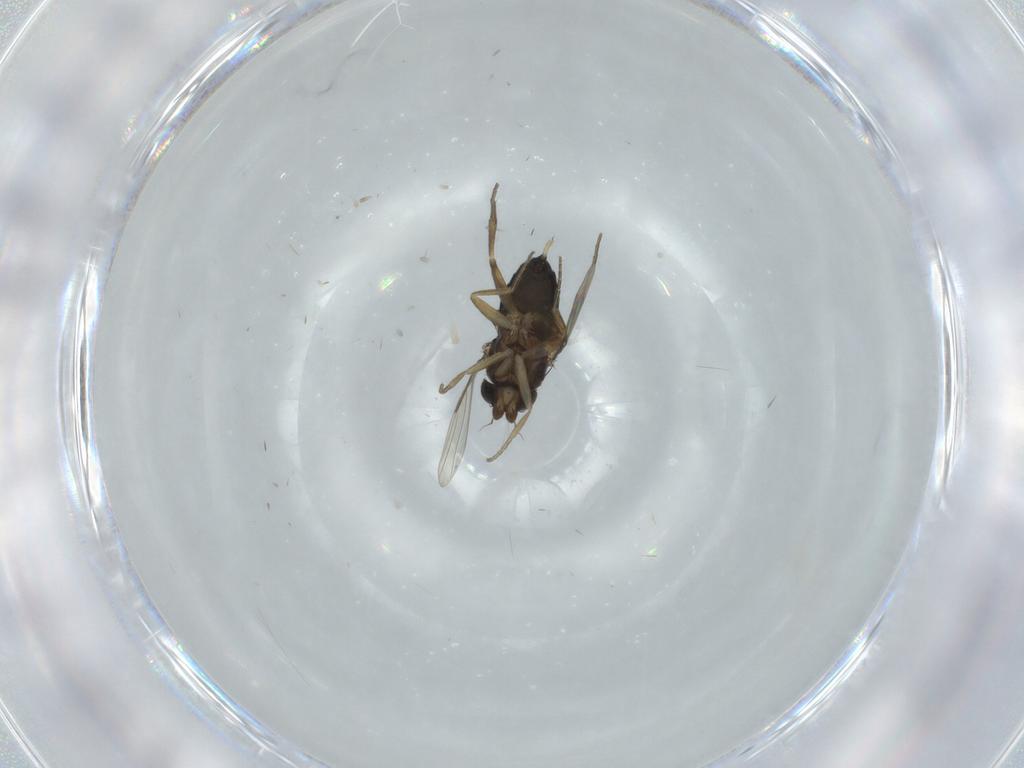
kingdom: Animalia
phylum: Arthropoda
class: Insecta
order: Diptera
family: Phoridae
